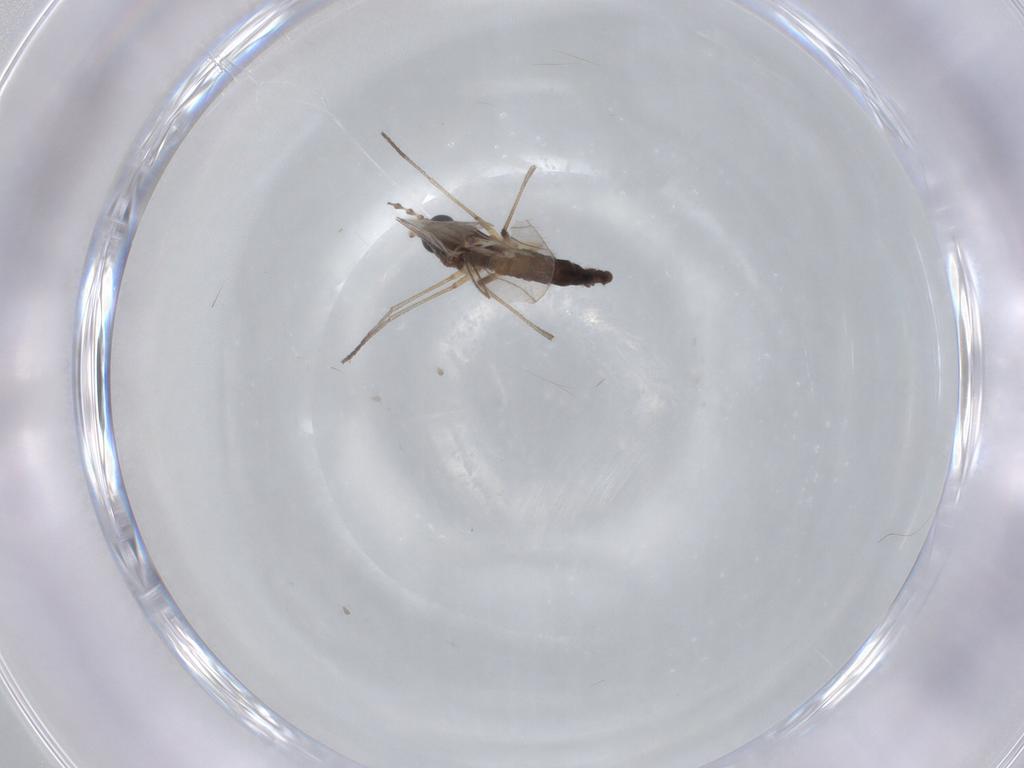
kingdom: Animalia
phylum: Arthropoda
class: Insecta
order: Diptera
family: Sciaridae
